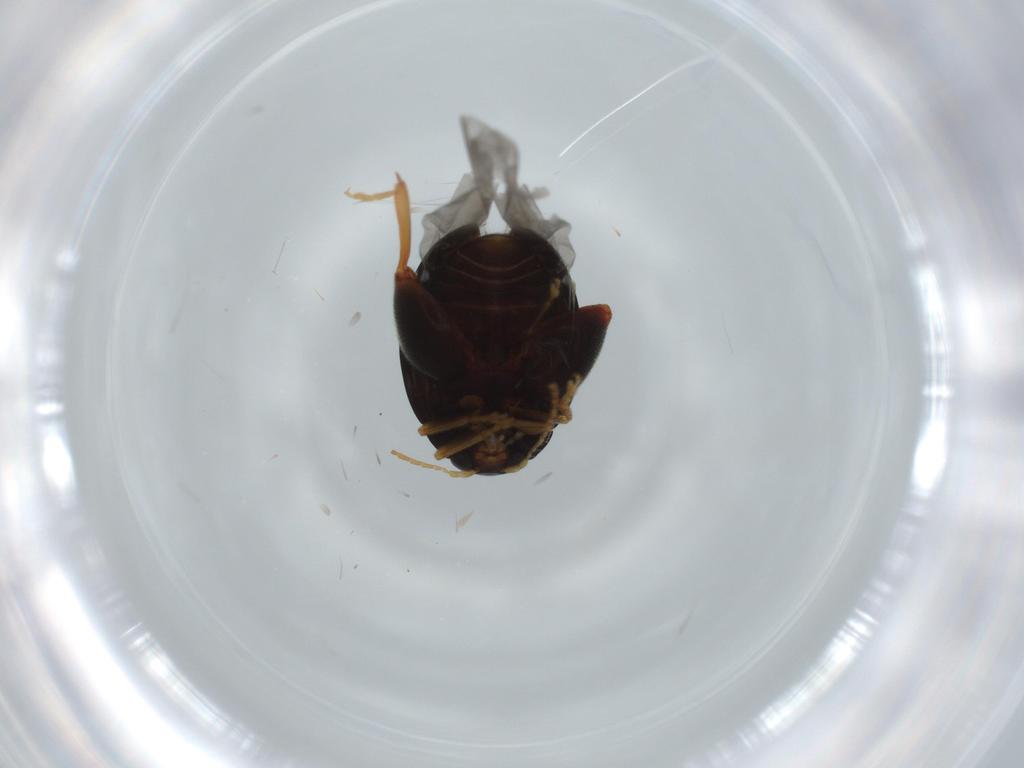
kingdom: Animalia
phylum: Arthropoda
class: Insecta
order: Coleoptera
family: Chrysomelidae
